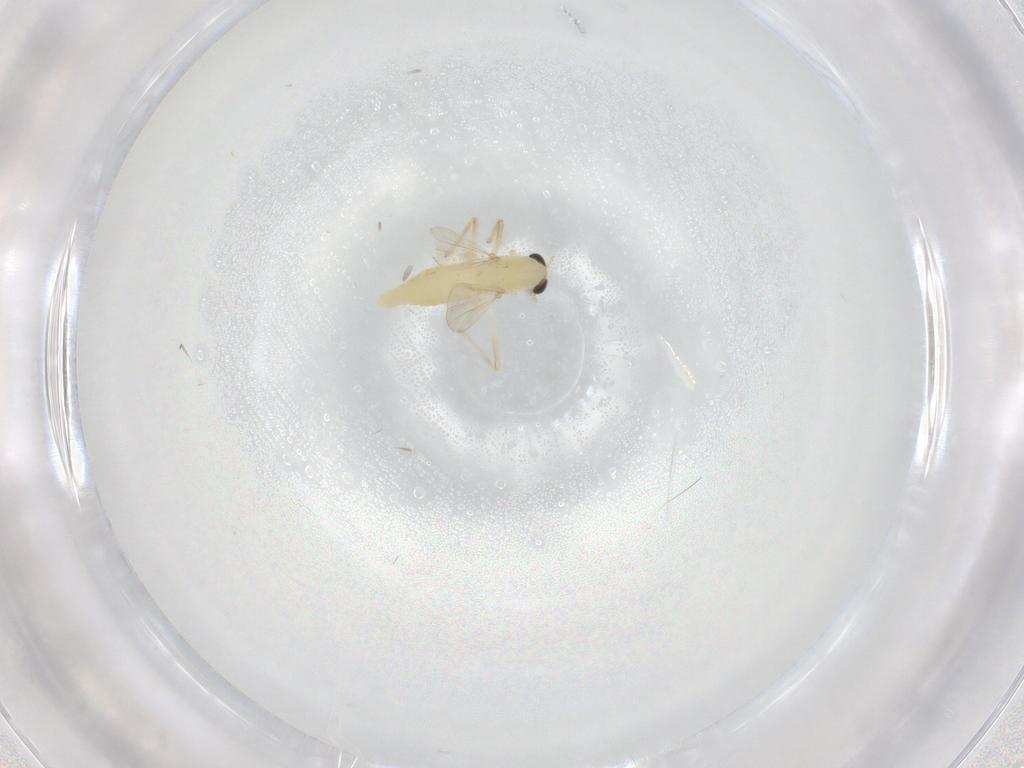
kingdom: Animalia
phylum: Arthropoda
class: Insecta
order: Diptera
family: Chironomidae
